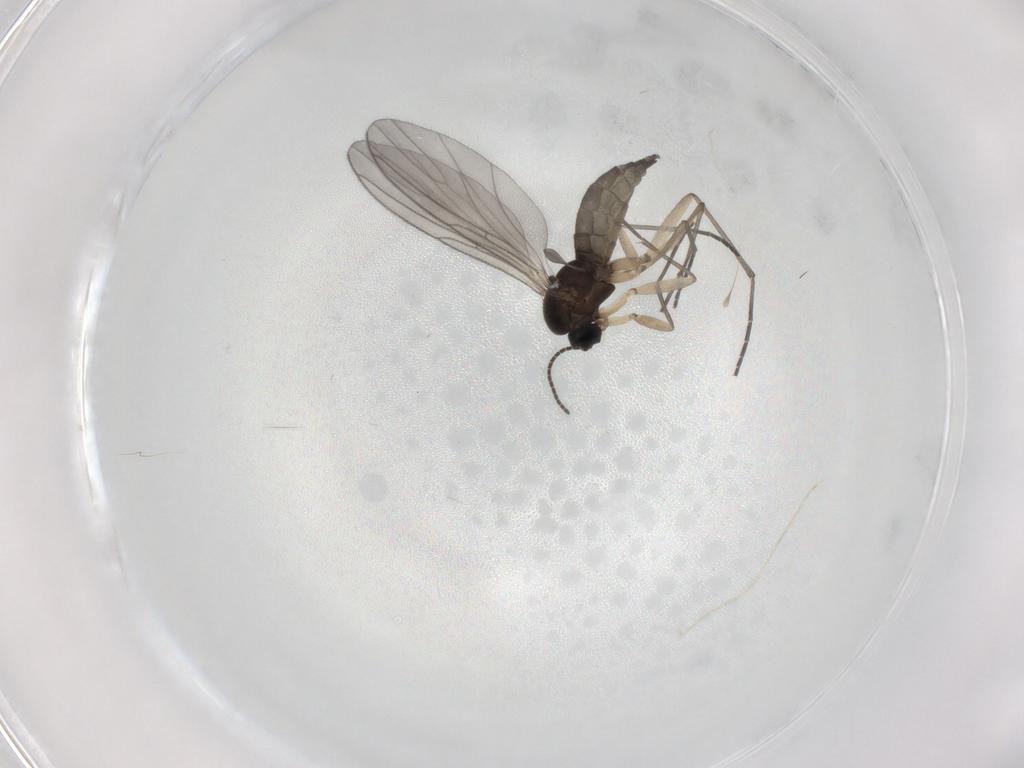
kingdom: Animalia
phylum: Arthropoda
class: Insecta
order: Diptera
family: Sciaridae
